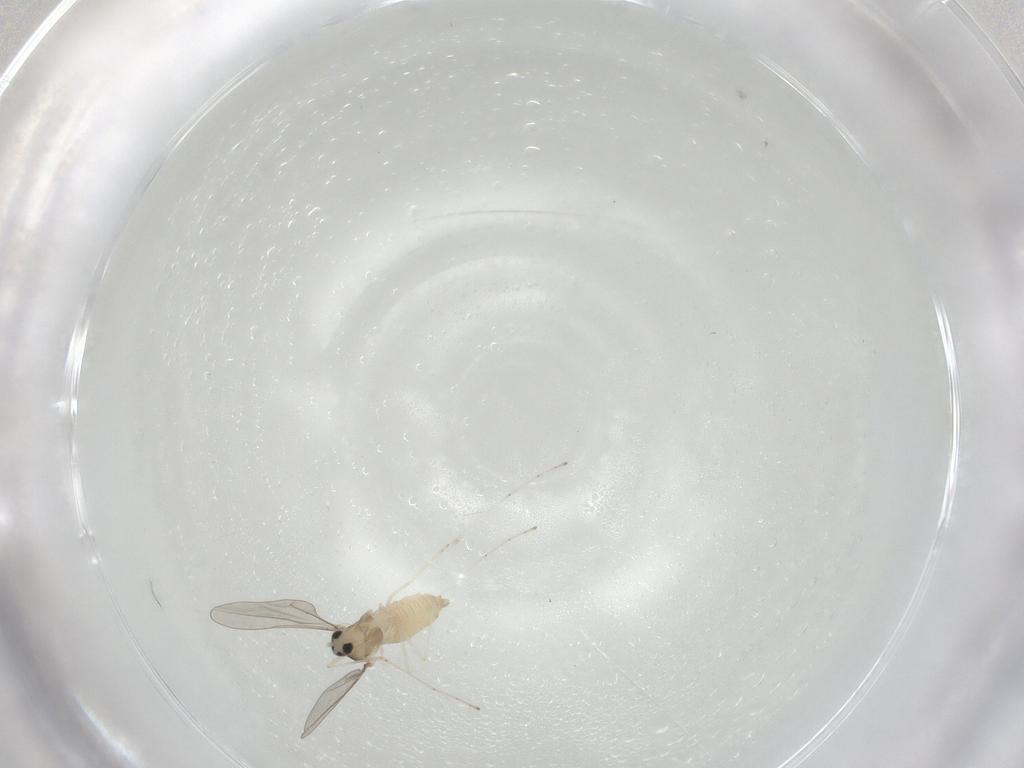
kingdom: Animalia
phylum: Arthropoda
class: Insecta
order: Diptera
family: Cecidomyiidae
